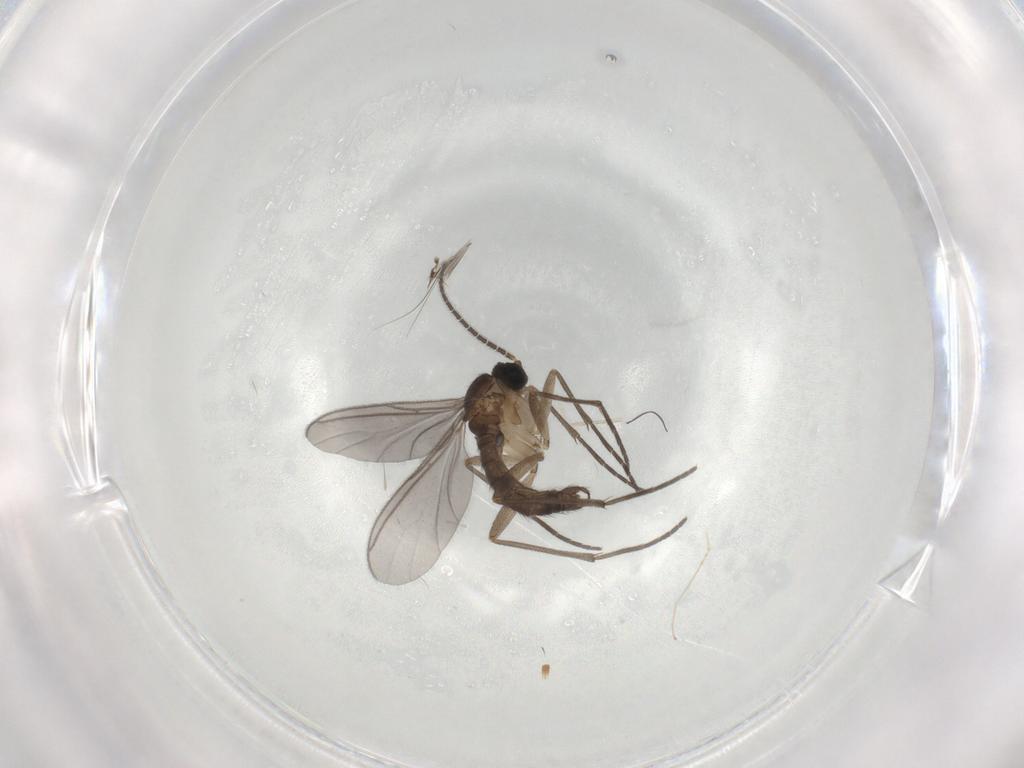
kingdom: Animalia
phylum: Arthropoda
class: Insecta
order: Diptera
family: Sciaridae
